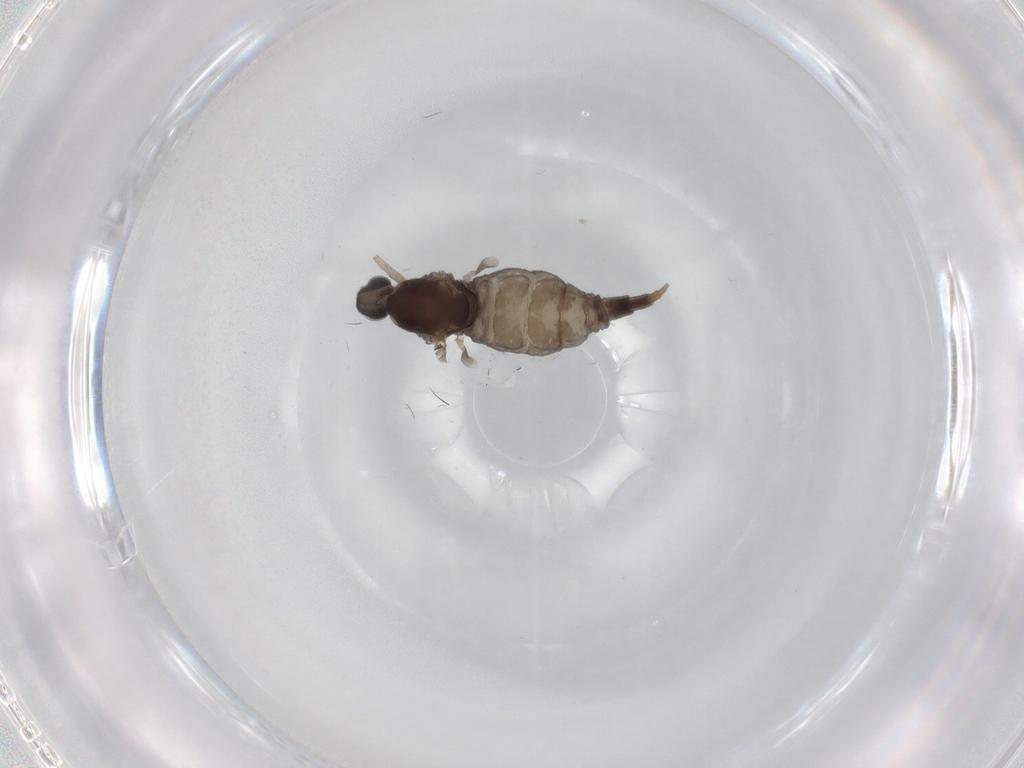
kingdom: Animalia
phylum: Arthropoda
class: Insecta
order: Diptera
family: Cecidomyiidae
